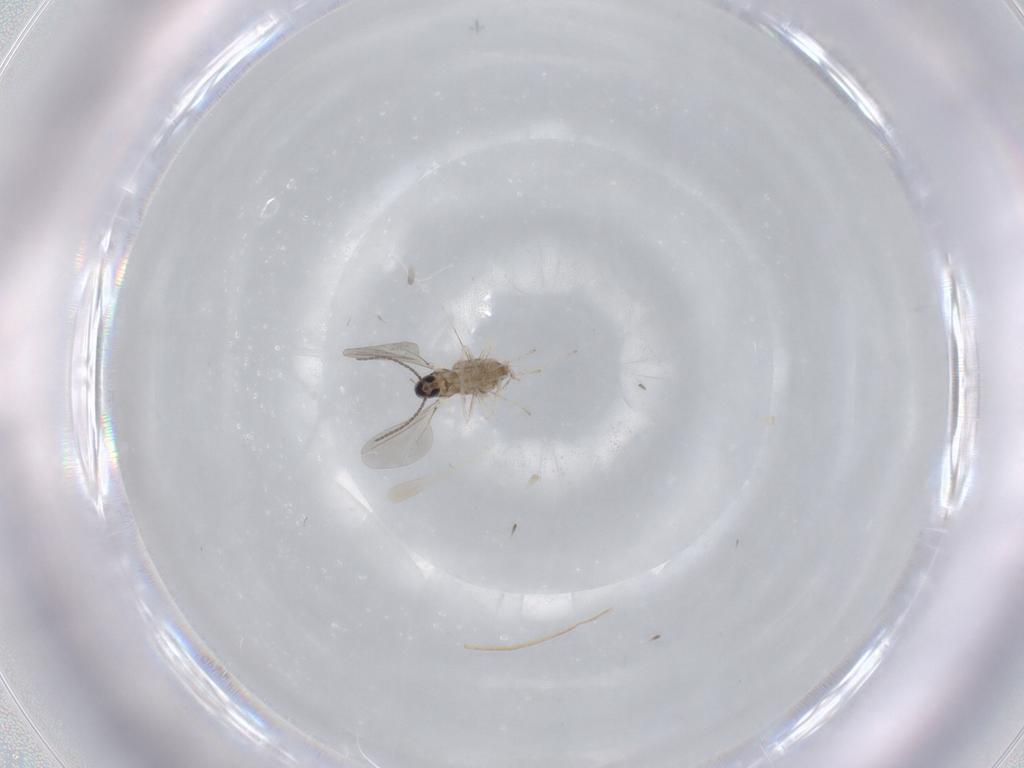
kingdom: Animalia
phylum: Arthropoda
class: Insecta
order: Diptera
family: Cecidomyiidae
